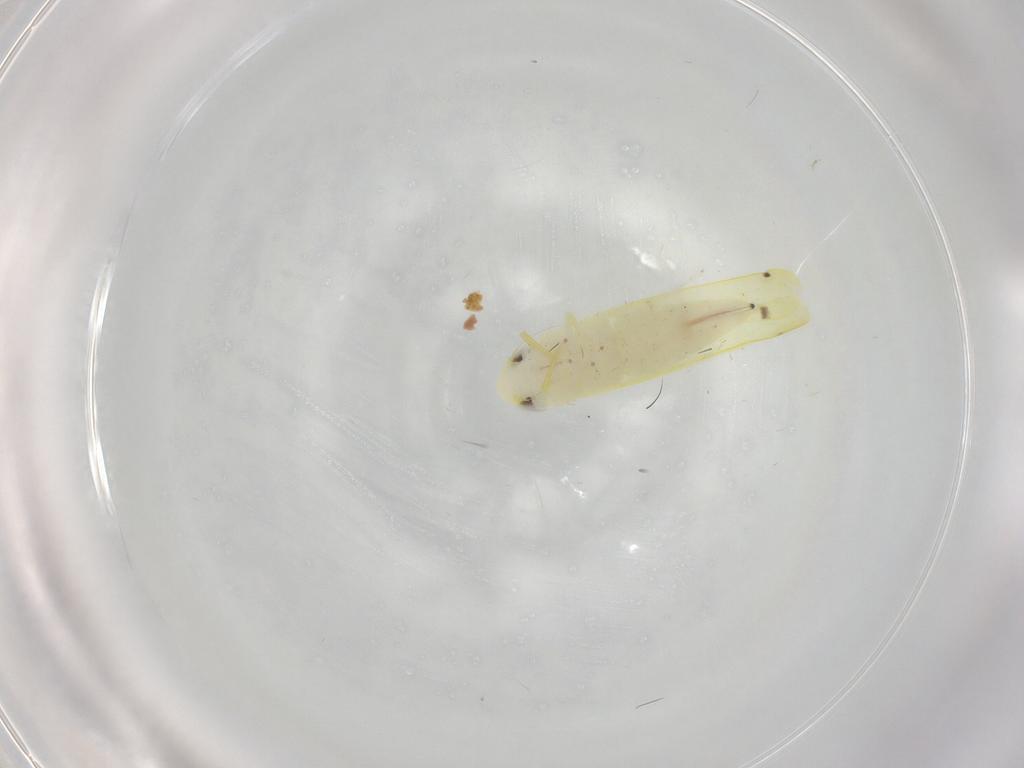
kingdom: Animalia
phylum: Arthropoda
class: Insecta
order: Hemiptera
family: Cicadellidae
